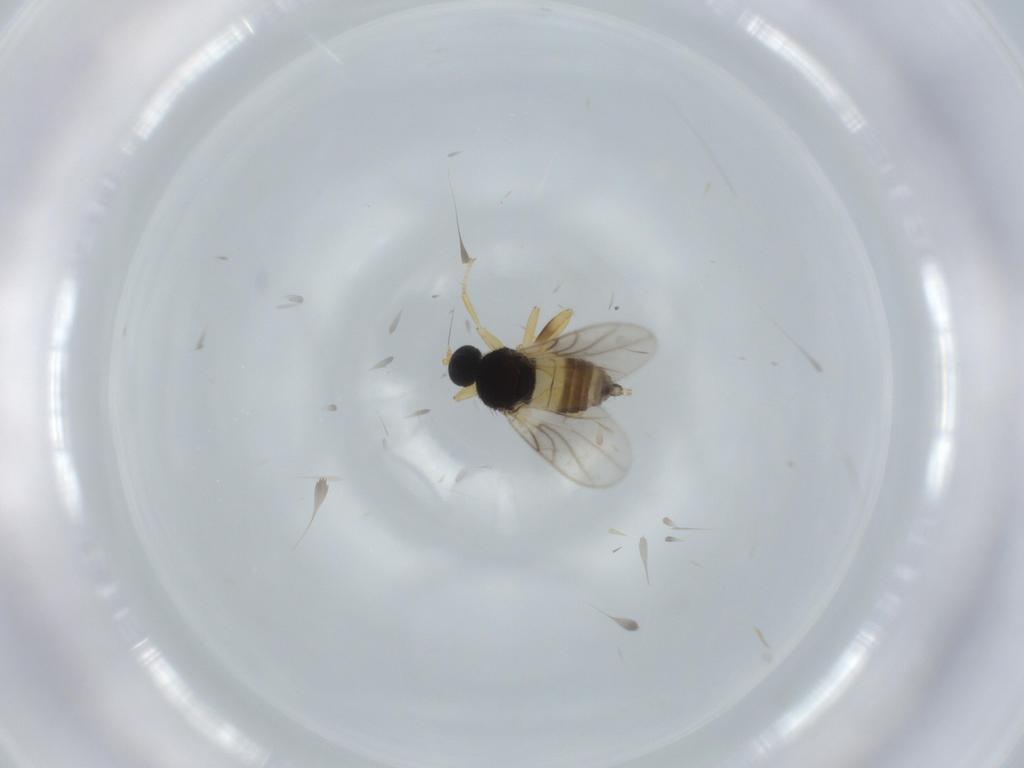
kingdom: Animalia
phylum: Arthropoda
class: Insecta
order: Diptera
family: Hybotidae
